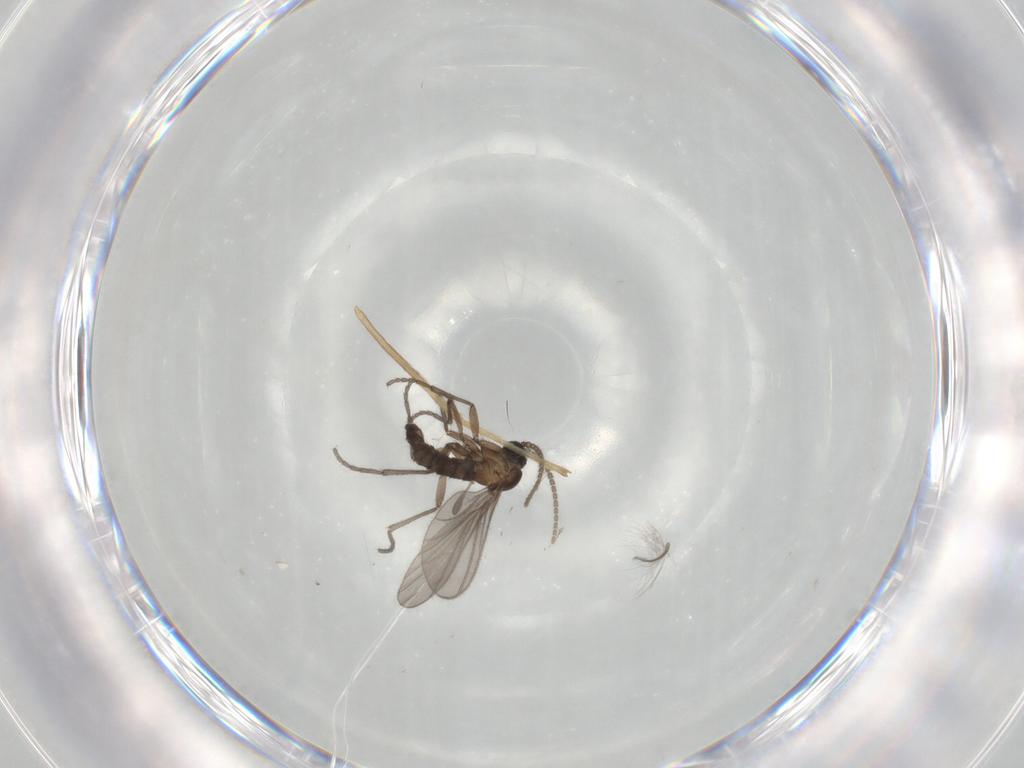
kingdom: Animalia
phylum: Arthropoda
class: Insecta
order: Diptera
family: Sciaridae
